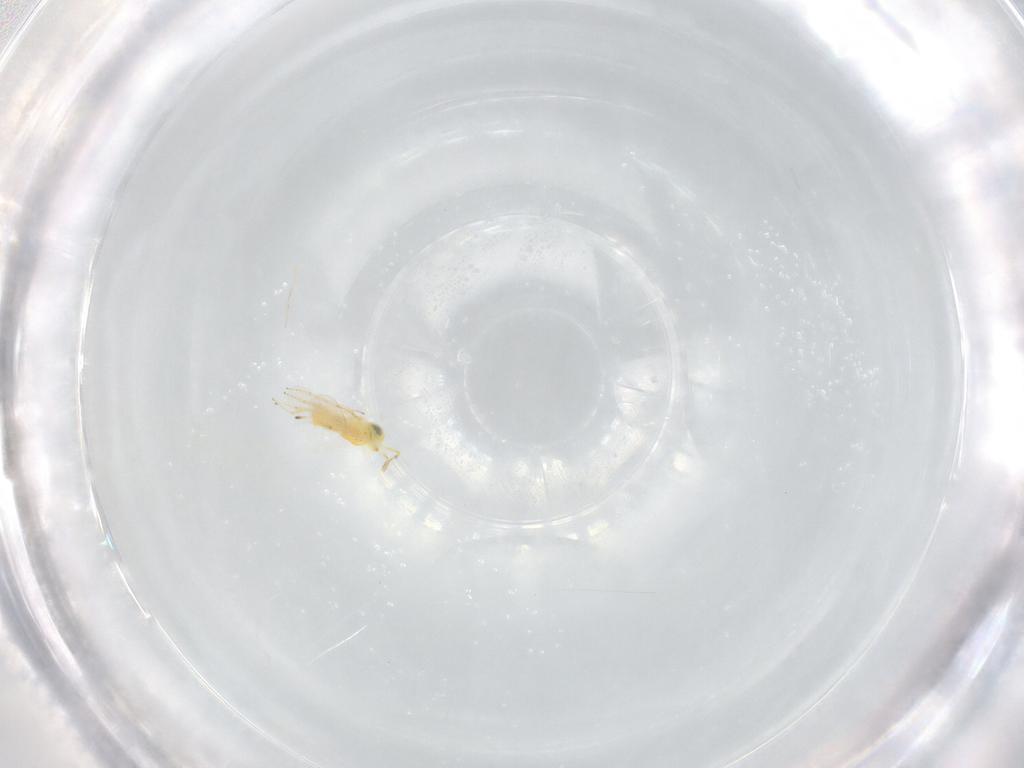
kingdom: Animalia
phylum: Arthropoda
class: Insecta
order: Hymenoptera
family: Encyrtidae
